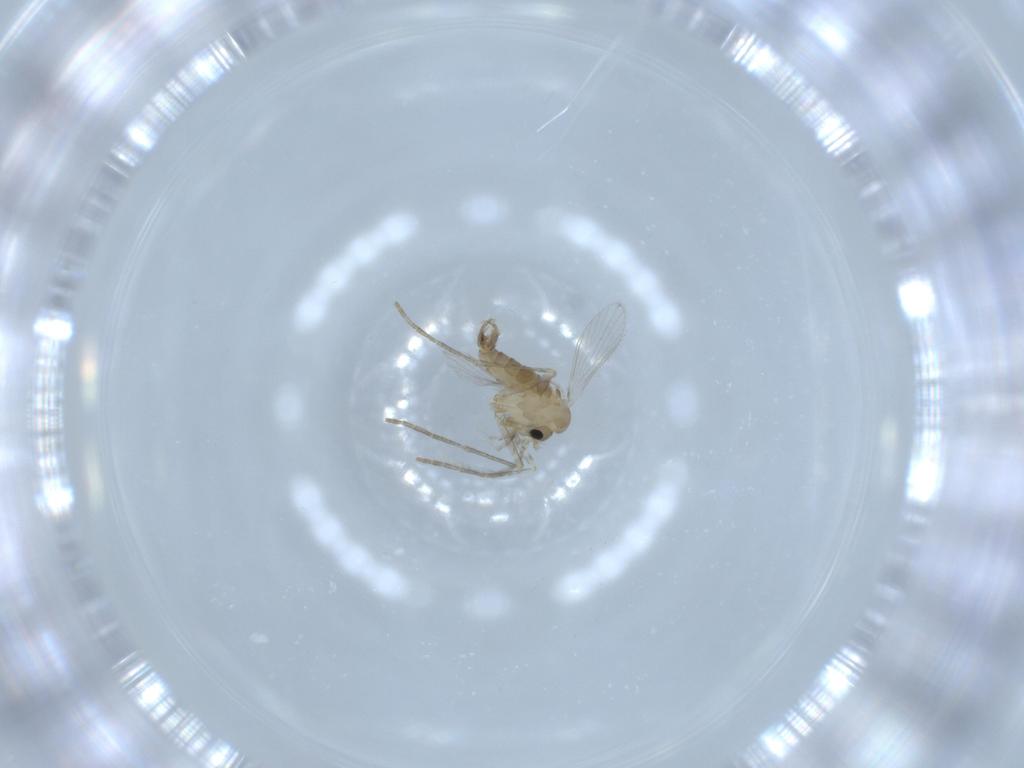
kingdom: Animalia
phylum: Arthropoda
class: Insecta
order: Diptera
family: Psychodidae
